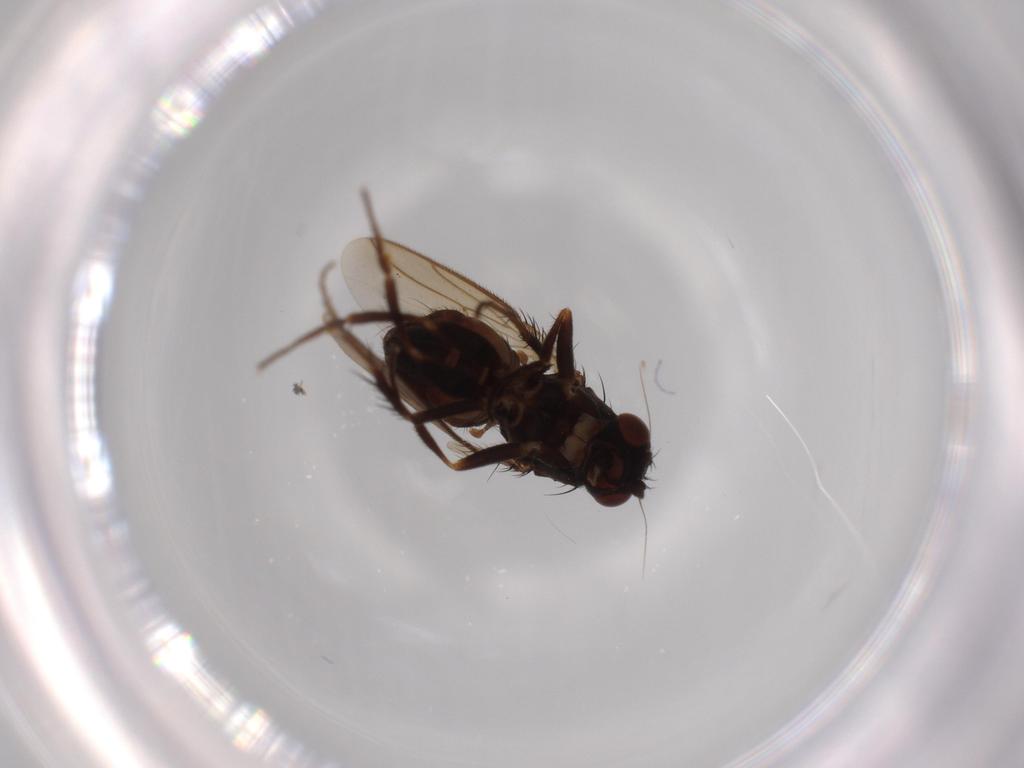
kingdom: Animalia
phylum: Arthropoda
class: Insecta
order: Diptera
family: Sphaeroceridae
